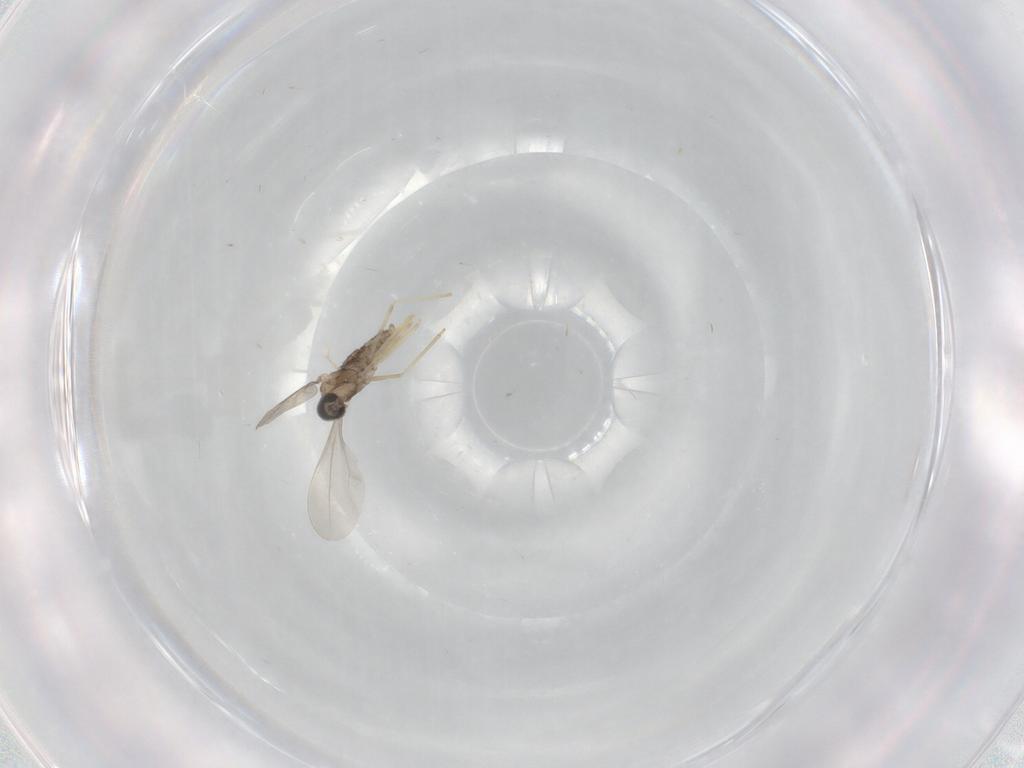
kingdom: Animalia
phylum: Arthropoda
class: Insecta
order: Diptera
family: Cecidomyiidae
